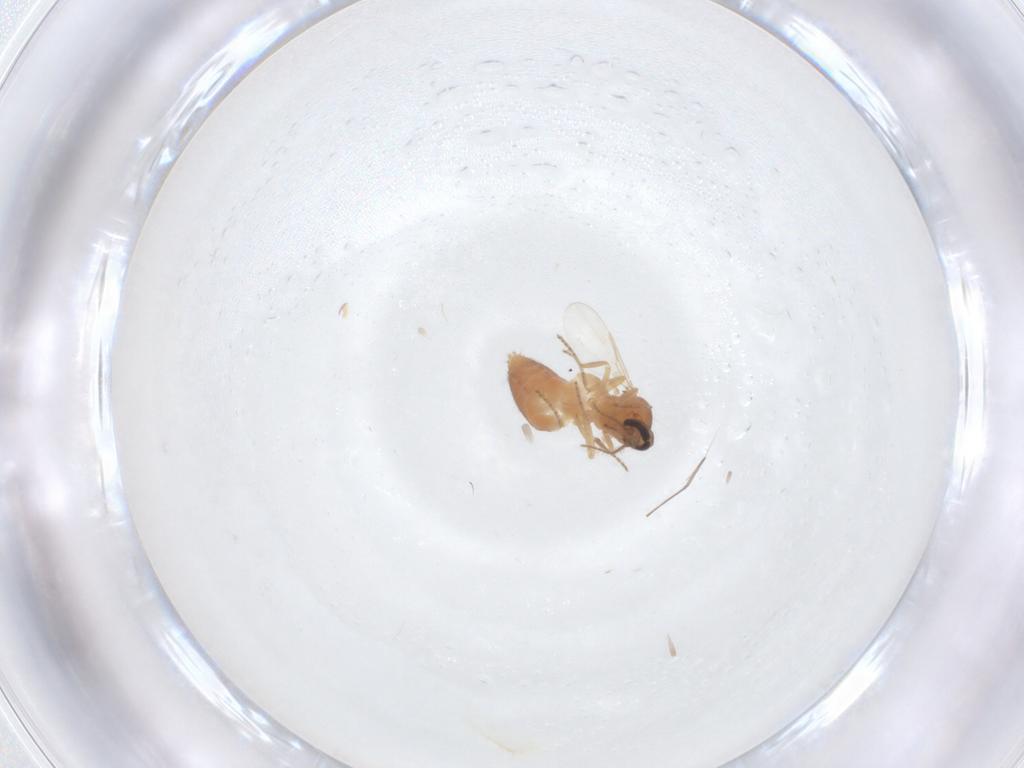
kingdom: Animalia
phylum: Arthropoda
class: Insecta
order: Diptera
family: Ceratopogonidae
